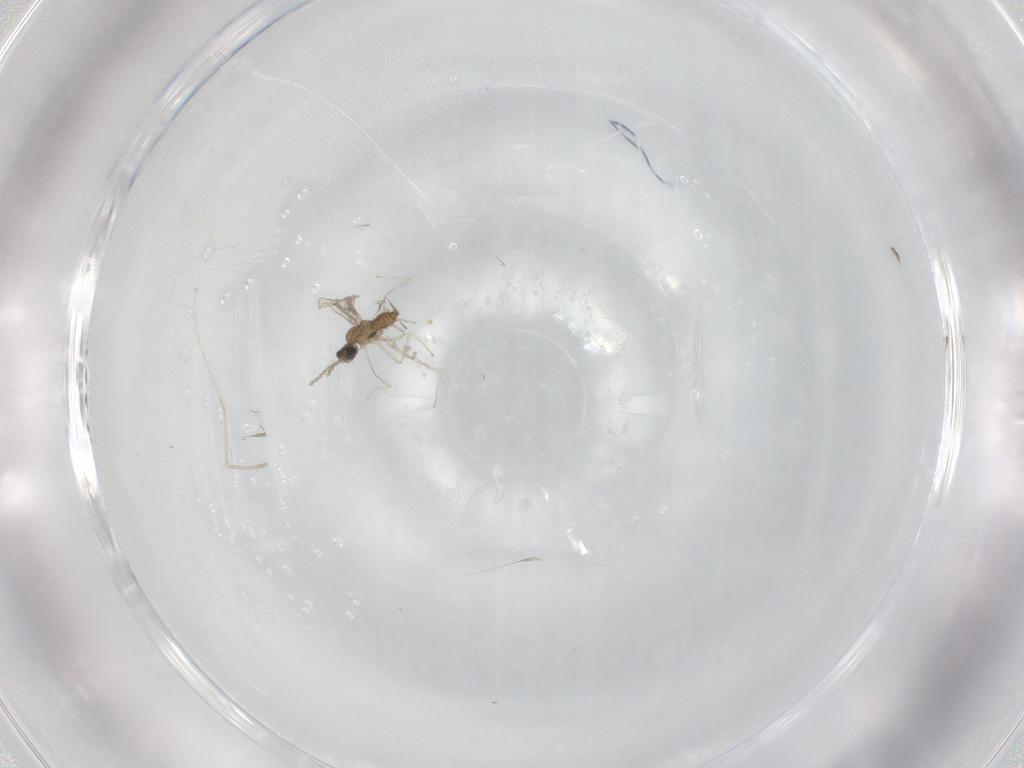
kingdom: Animalia
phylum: Arthropoda
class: Insecta
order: Diptera
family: Cecidomyiidae
